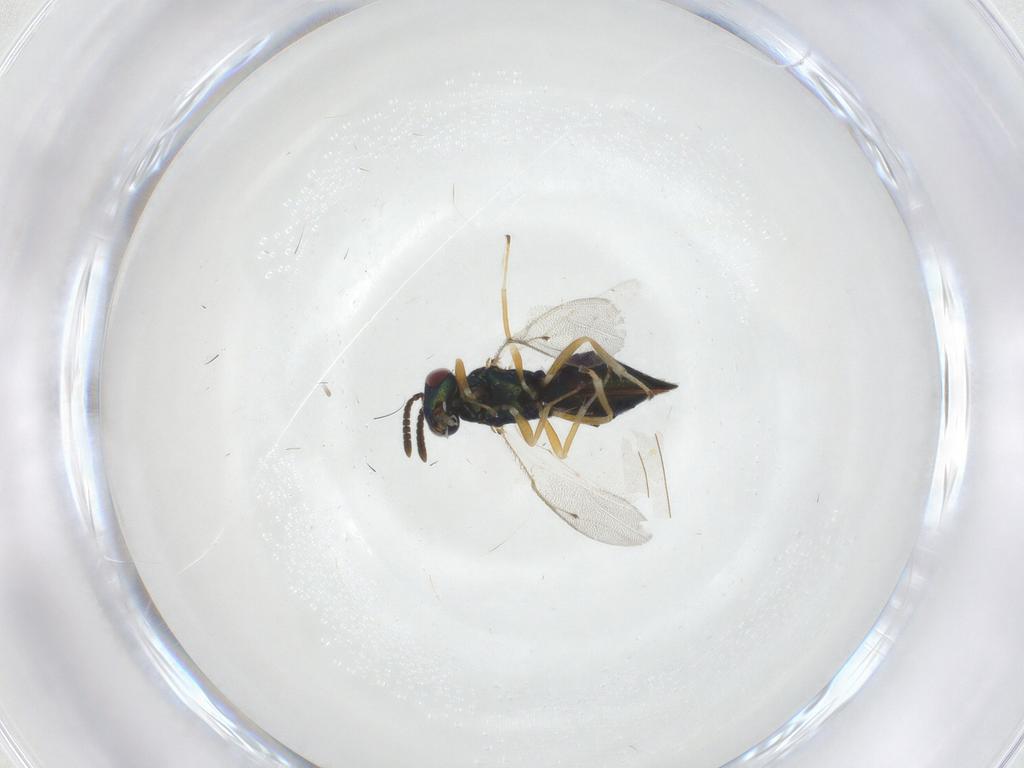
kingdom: Animalia
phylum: Arthropoda
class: Insecta
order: Hymenoptera
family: Pteromalidae
